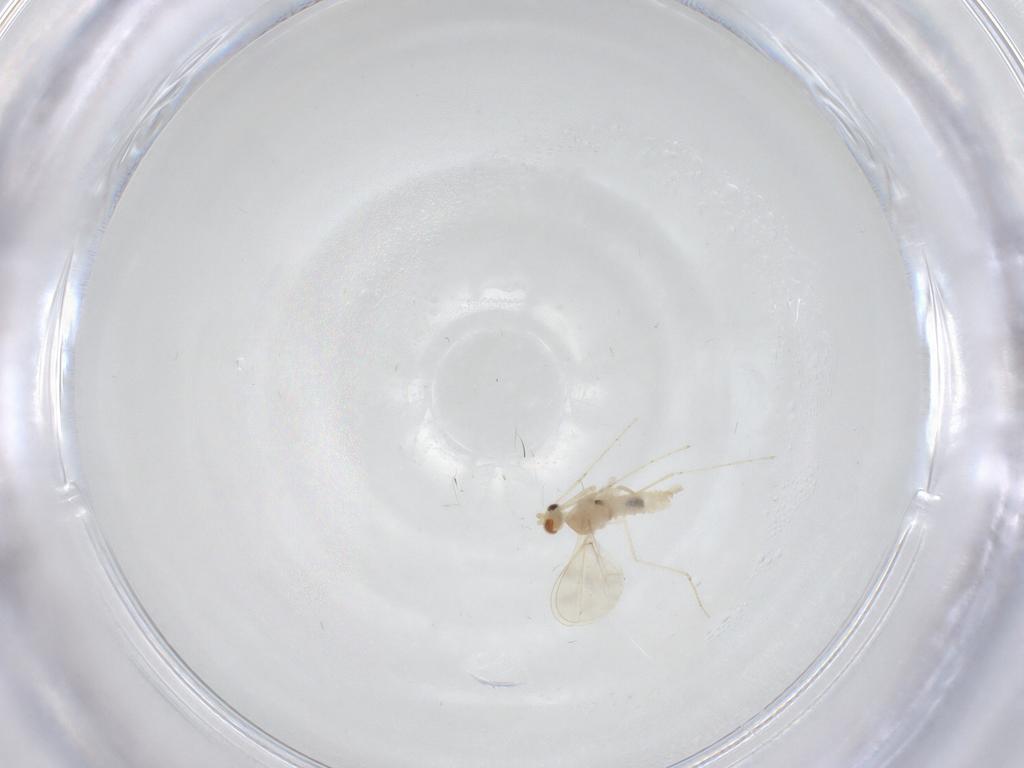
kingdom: Animalia
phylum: Arthropoda
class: Insecta
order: Diptera
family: Cecidomyiidae
